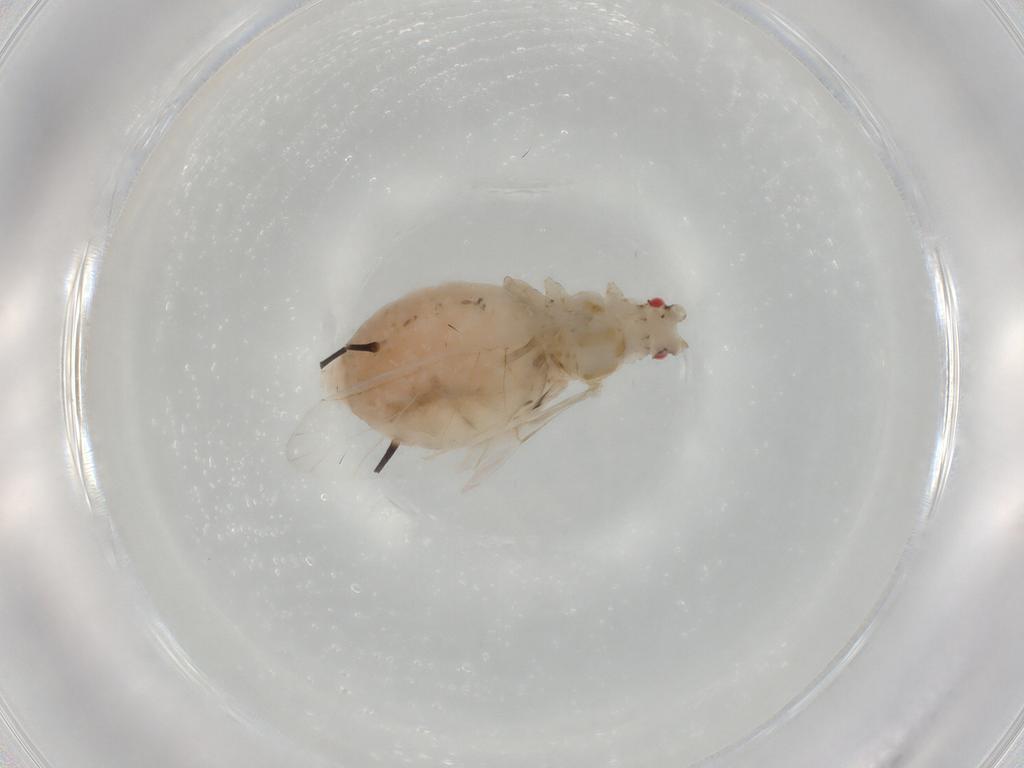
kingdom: Animalia
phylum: Arthropoda
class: Insecta
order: Hemiptera
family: Aphididae
